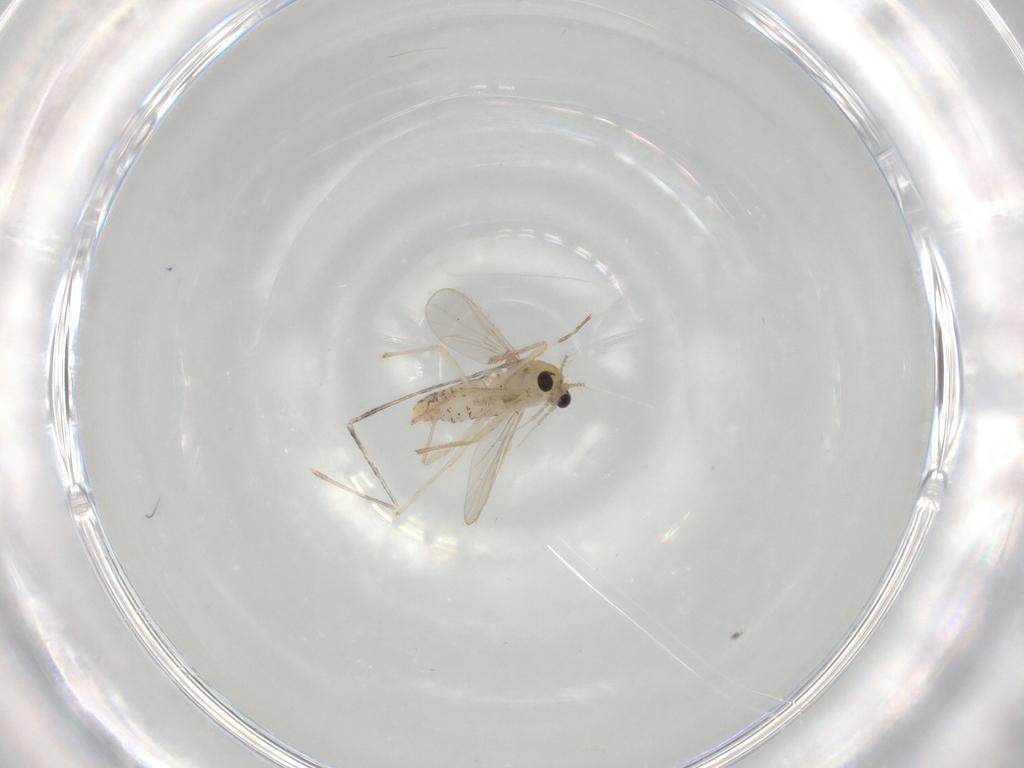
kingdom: Animalia
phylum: Arthropoda
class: Insecta
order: Diptera
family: Chironomidae
